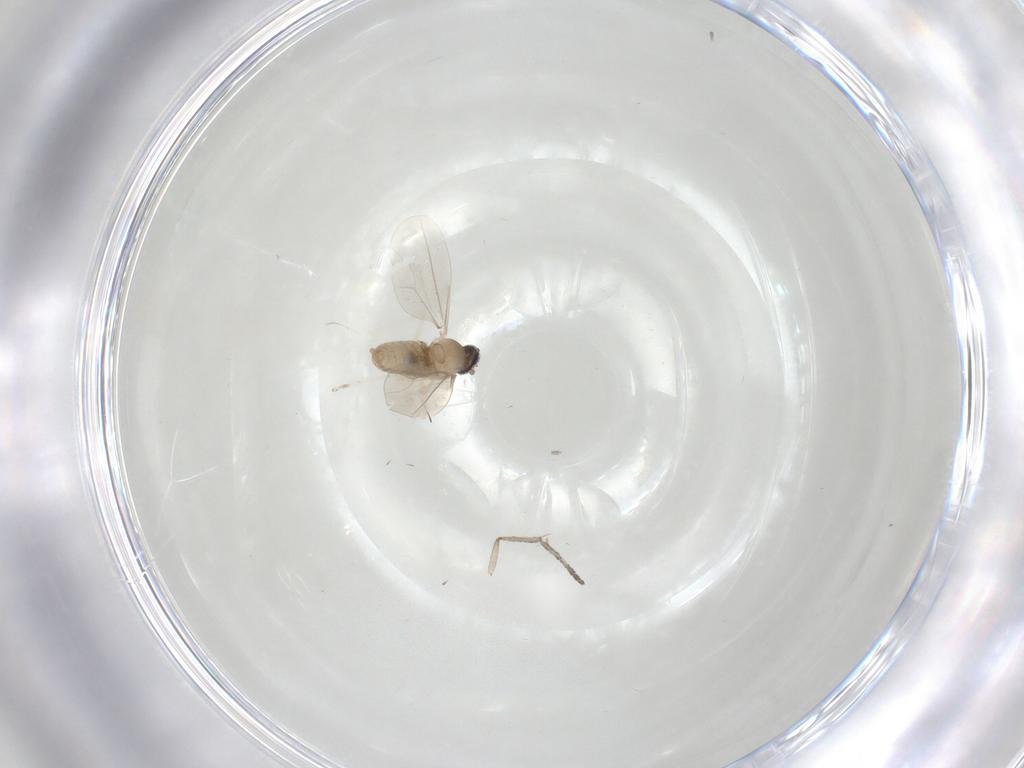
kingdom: Animalia
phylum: Arthropoda
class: Insecta
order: Diptera
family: Cecidomyiidae
